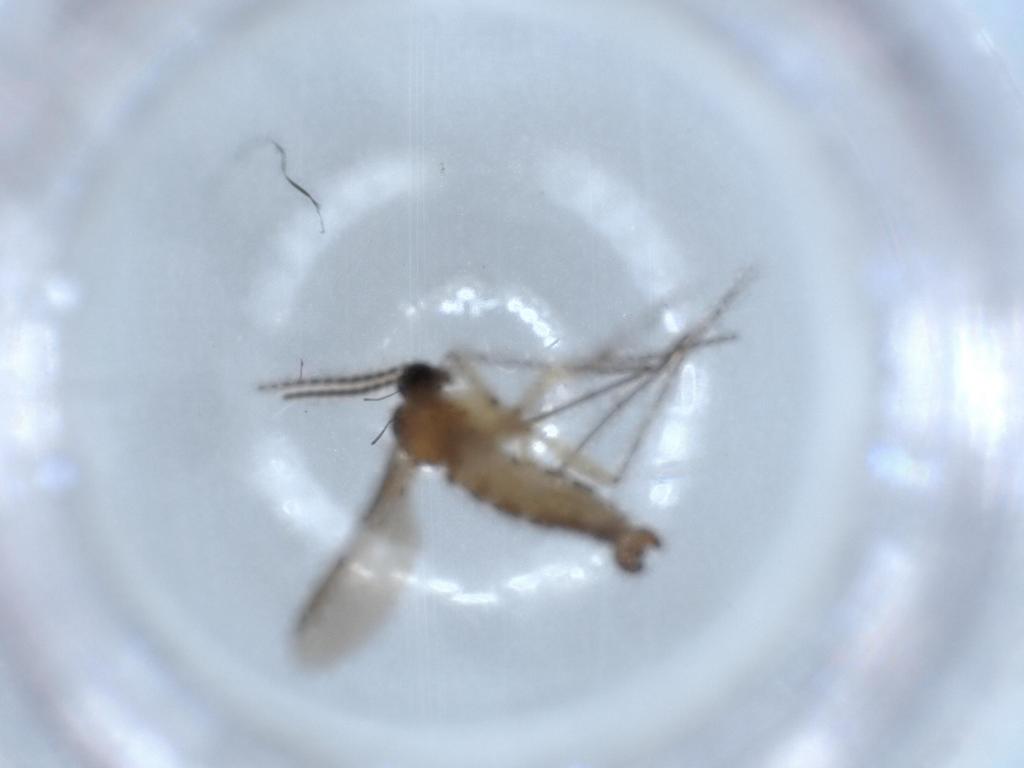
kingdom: Animalia
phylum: Arthropoda
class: Insecta
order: Diptera
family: Sciaridae
